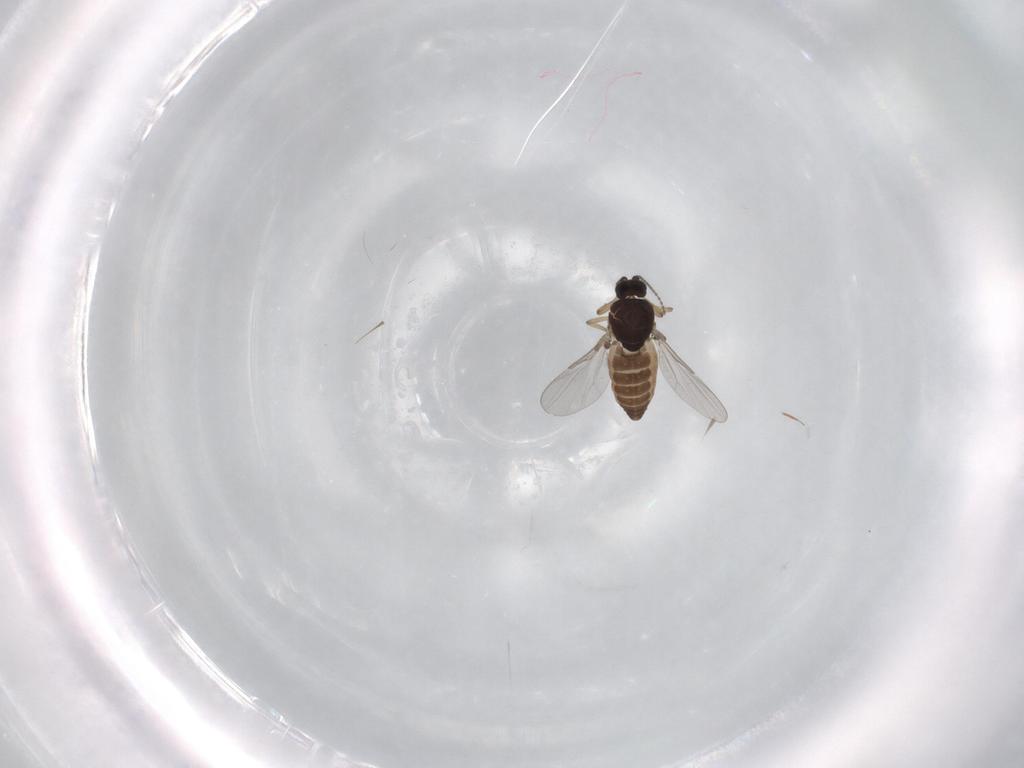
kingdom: Animalia
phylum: Arthropoda
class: Insecta
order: Diptera
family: Ceratopogonidae
